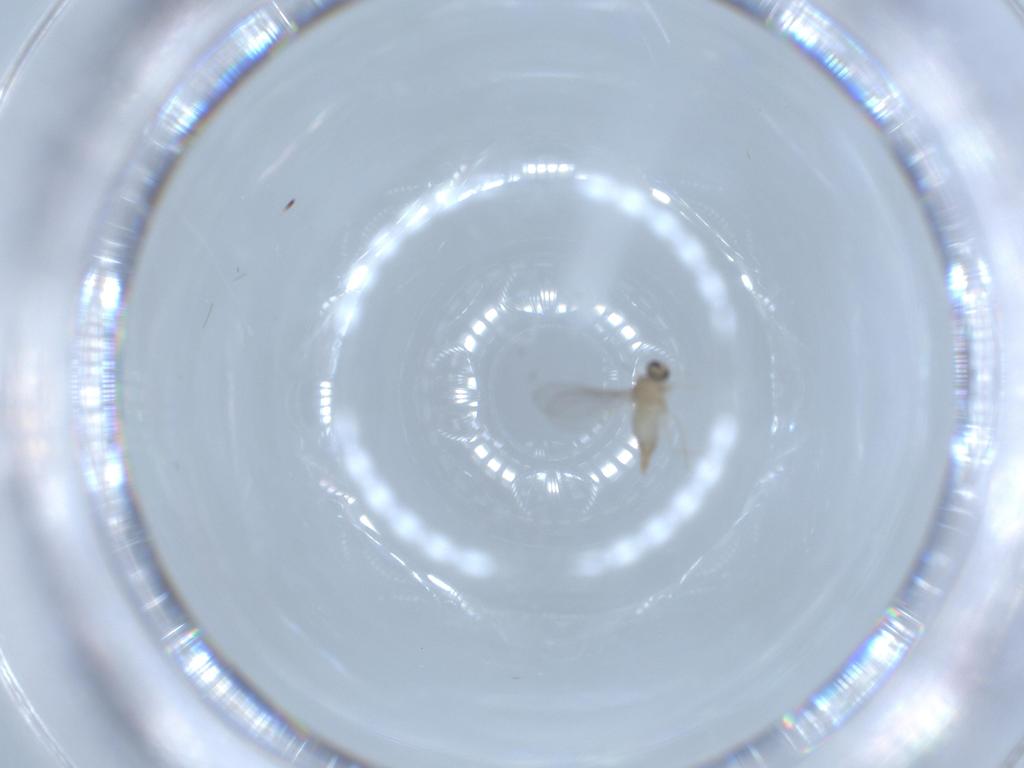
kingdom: Animalia
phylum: Arthropoda
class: Insecta
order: Diptera
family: Cecidomyiidae
